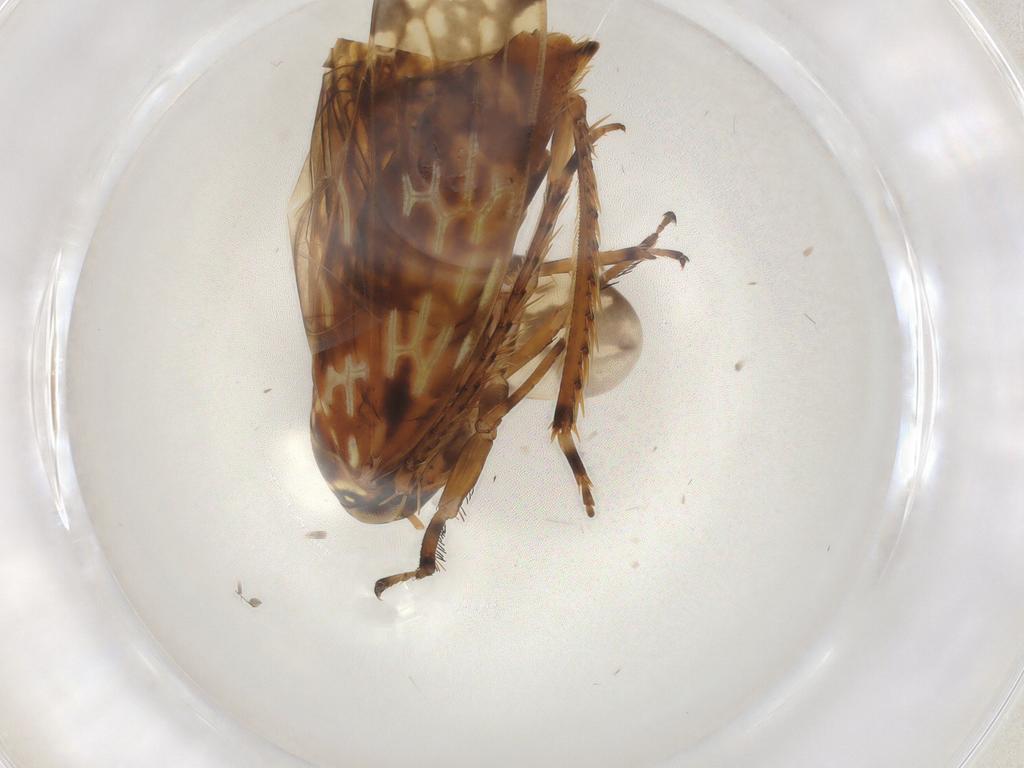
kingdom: Animalia
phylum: Arthropoda
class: Insecta
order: Hemiptera
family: Cicadellidae
